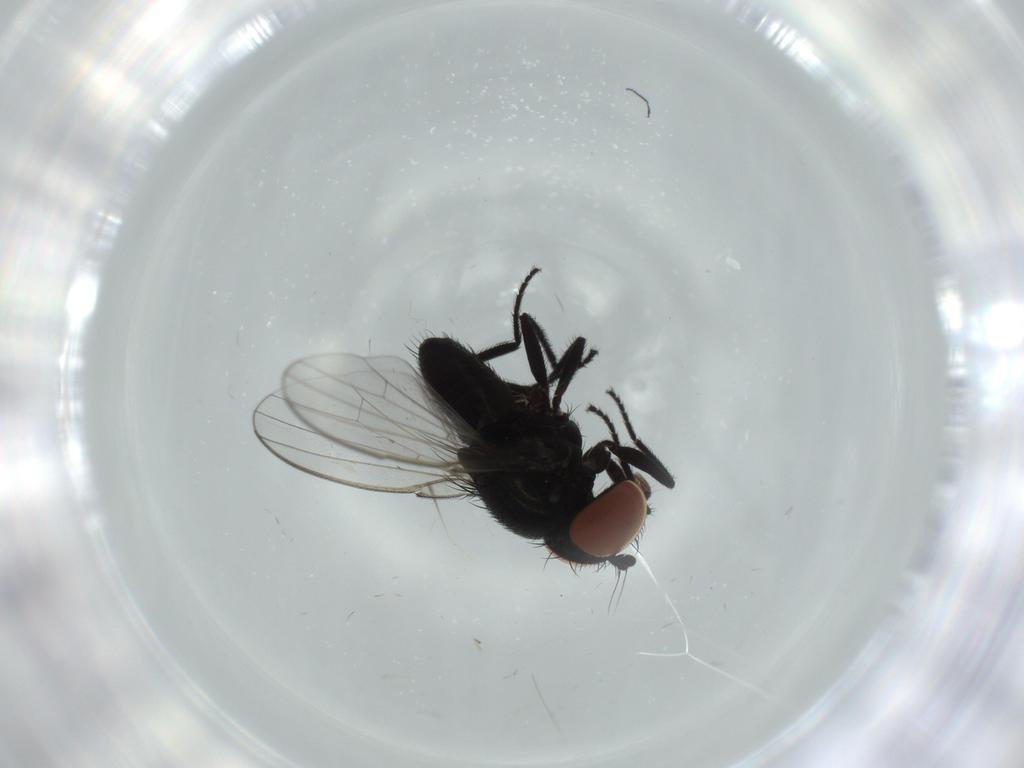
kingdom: Animalia
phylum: Arthropoda
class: Insecta
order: Diptera
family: Milichiidae
